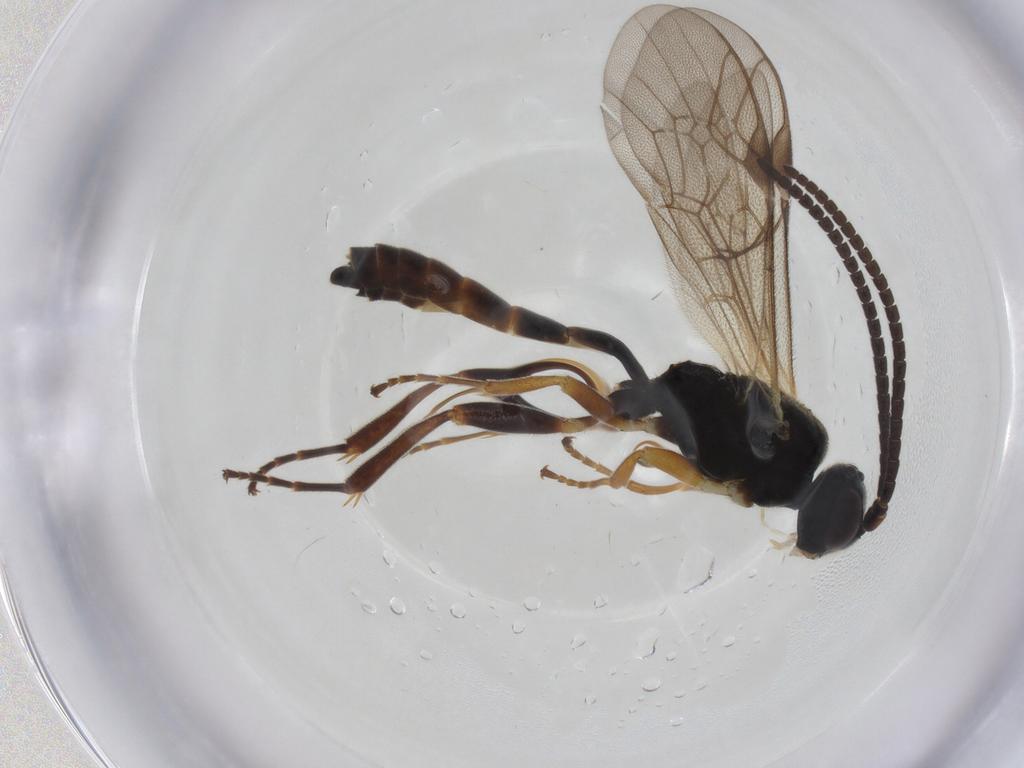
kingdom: Animalia
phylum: Arthropoda
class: Insecta
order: Hymenoptera
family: Ichneumonidae
